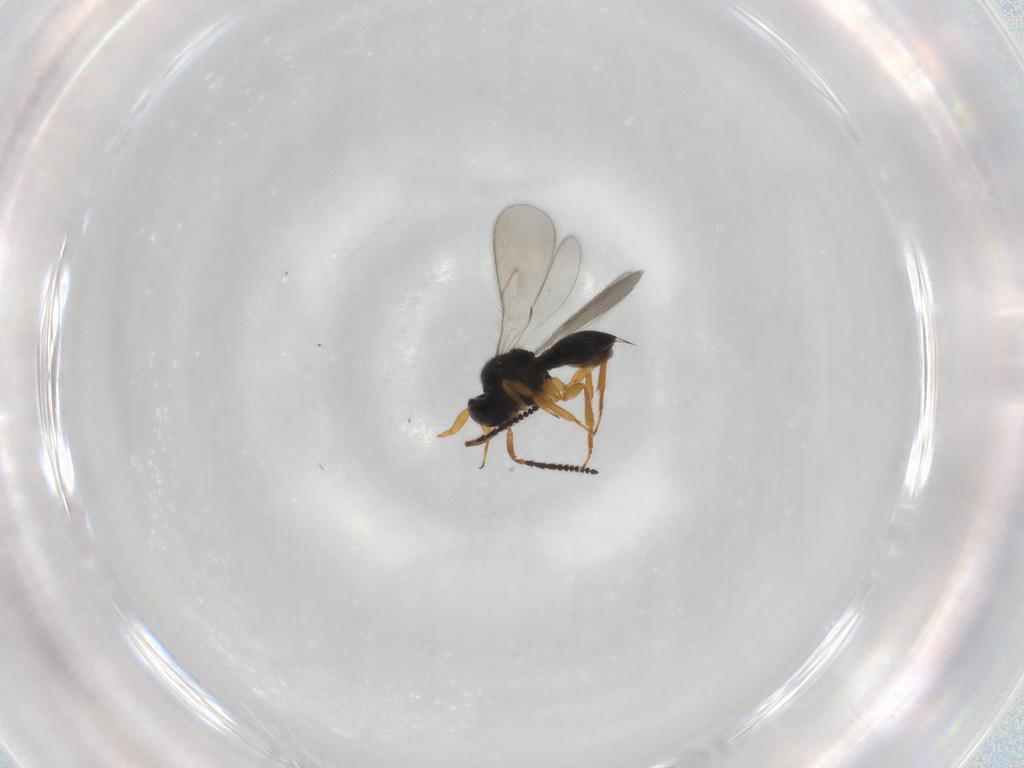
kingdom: Animalia
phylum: Arthropoda
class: Insecta
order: Hymenoptera
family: Scelionidae
